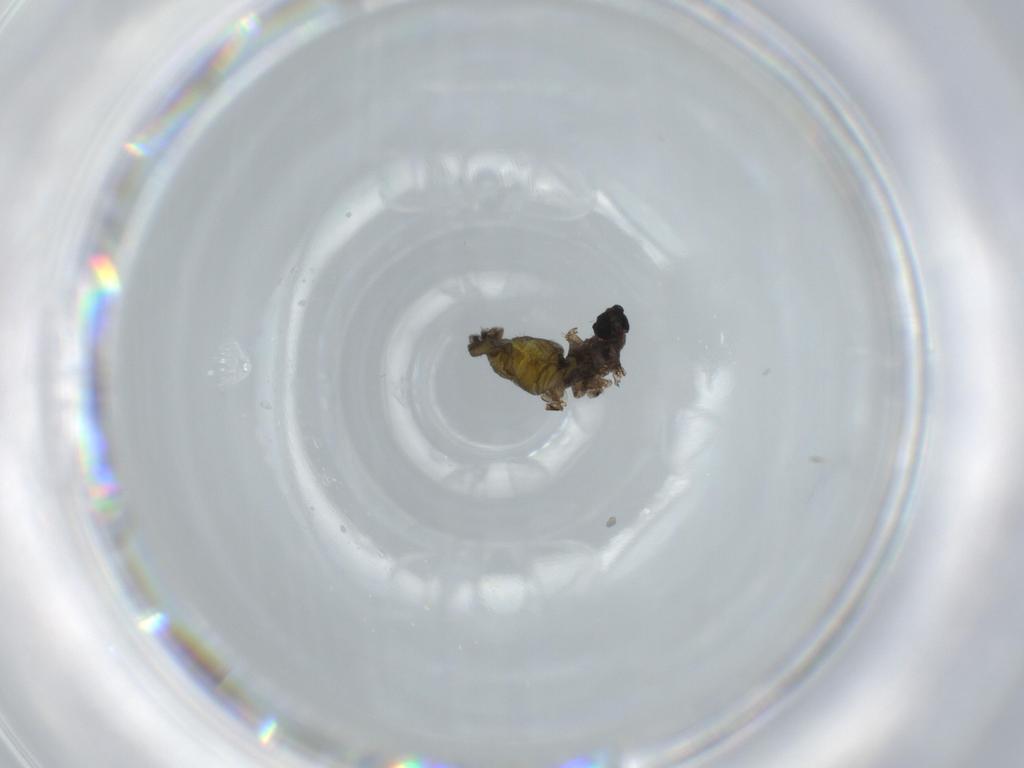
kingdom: Animalia
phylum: Arthropoda
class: Insecta
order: Diptera
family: Sciaridae
